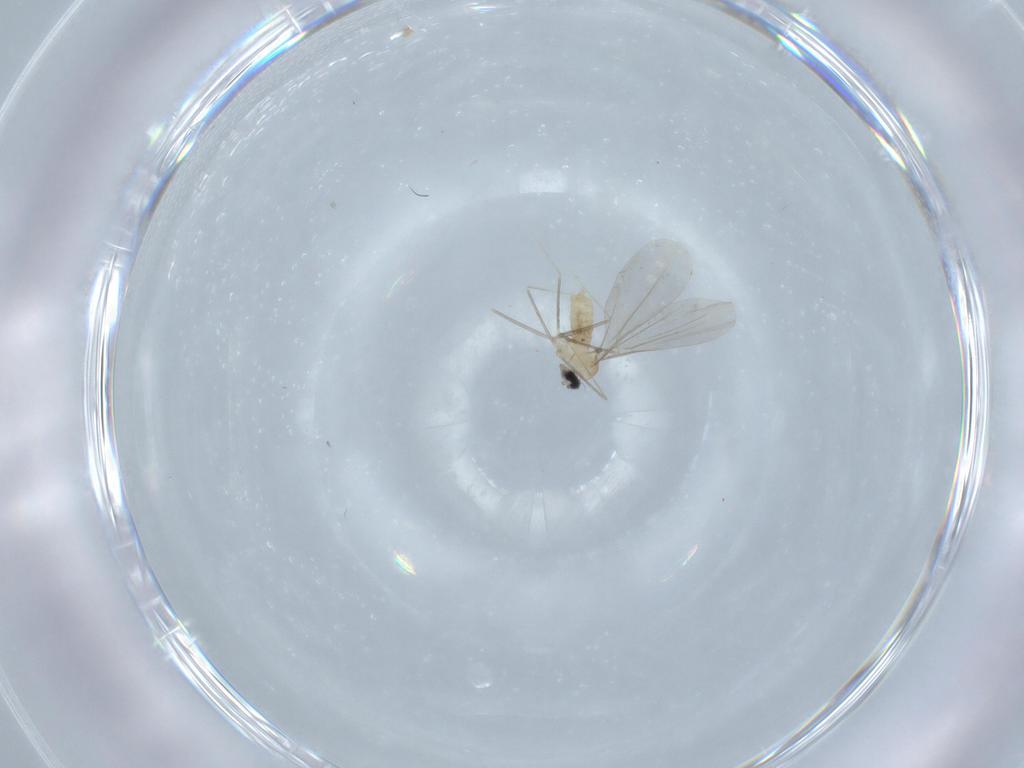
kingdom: Animalia
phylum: Arthropoda
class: Insecta
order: Diptera
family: Cecidomyiidae
